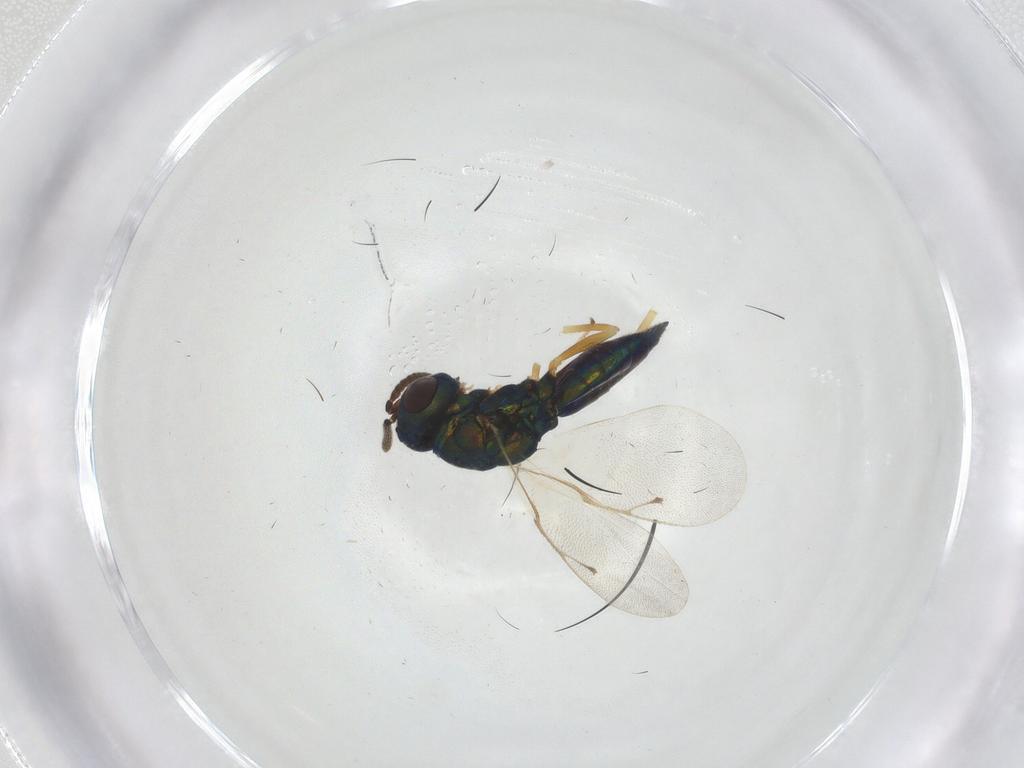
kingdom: Animalia
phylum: Arthropoda
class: Insecta
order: Hymenoptera
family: Pteromalidae
